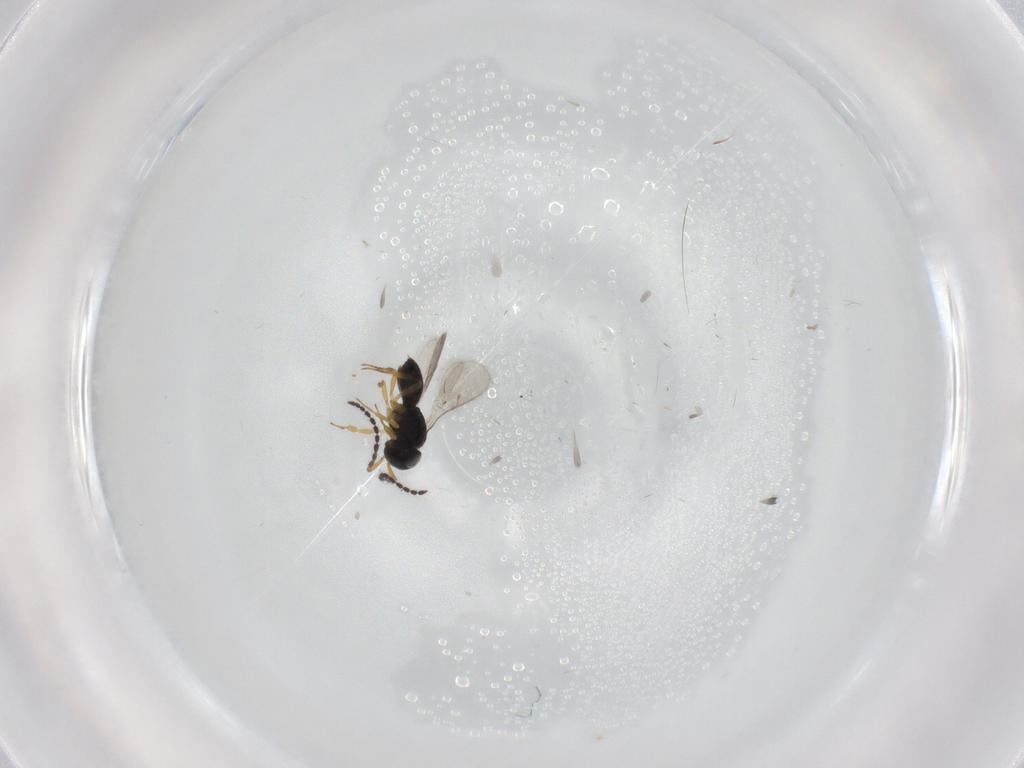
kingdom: Animalia
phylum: Arthropoda
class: Insecta
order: Hymenoptera
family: Scelionidae
